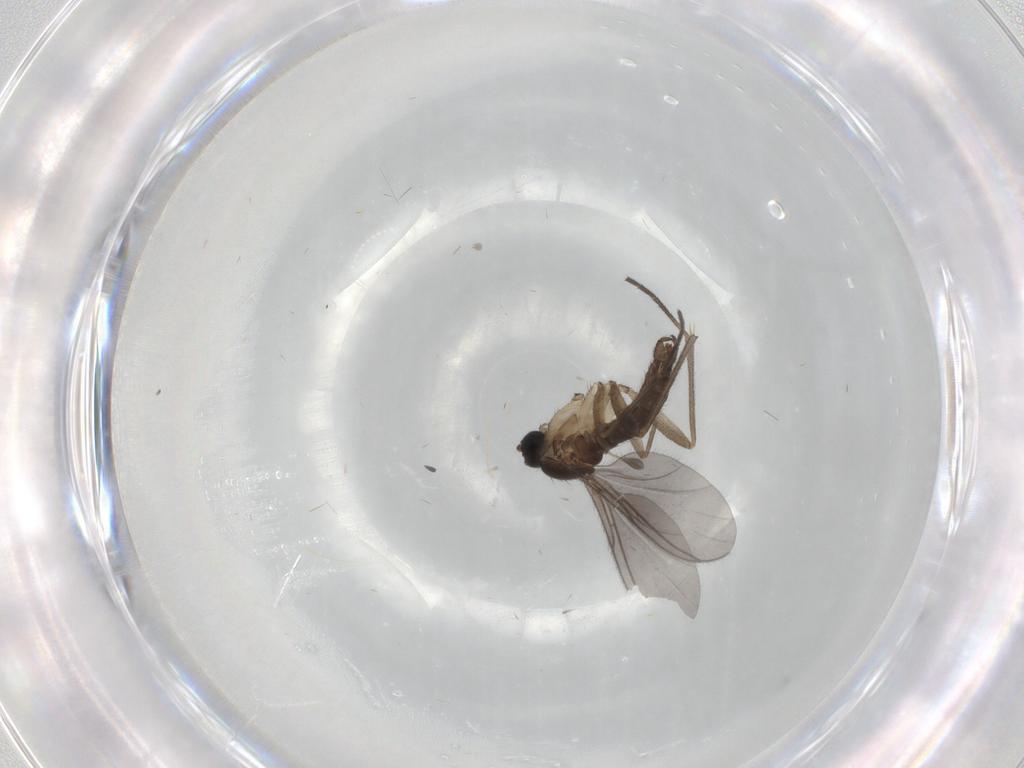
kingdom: Animalia
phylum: Arthropoda
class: Insecta
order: Diptera
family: Sciaridae
